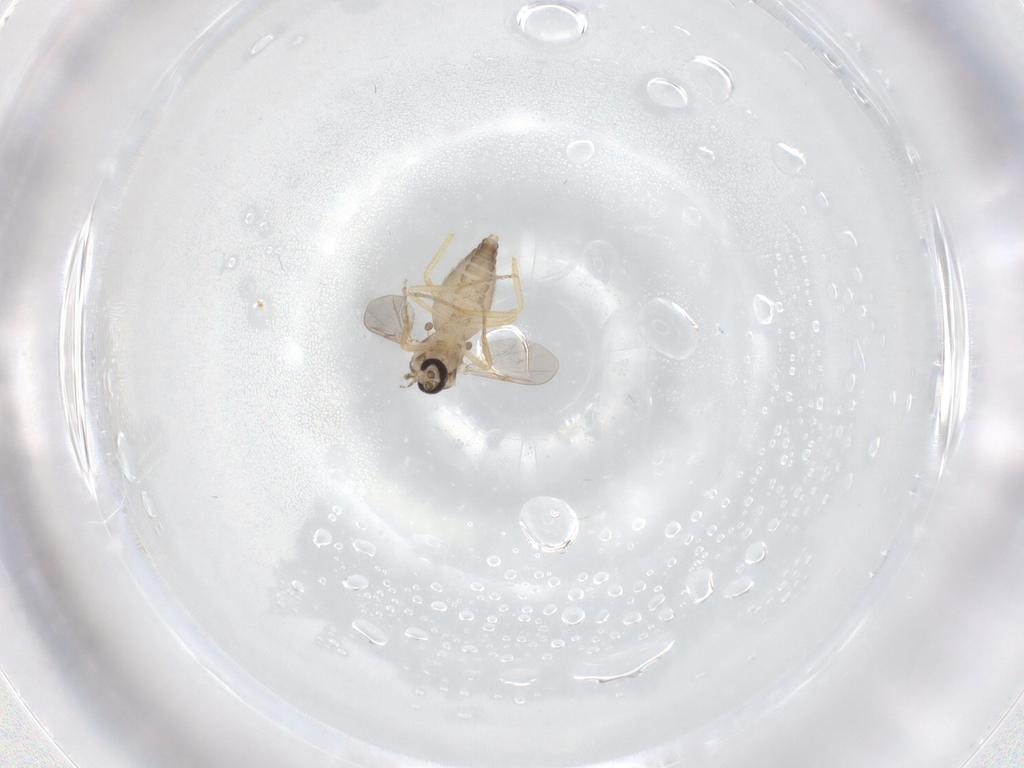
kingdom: Animalia
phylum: Arthropoda
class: Insecta
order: Diptera
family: Ceratopogonidae
